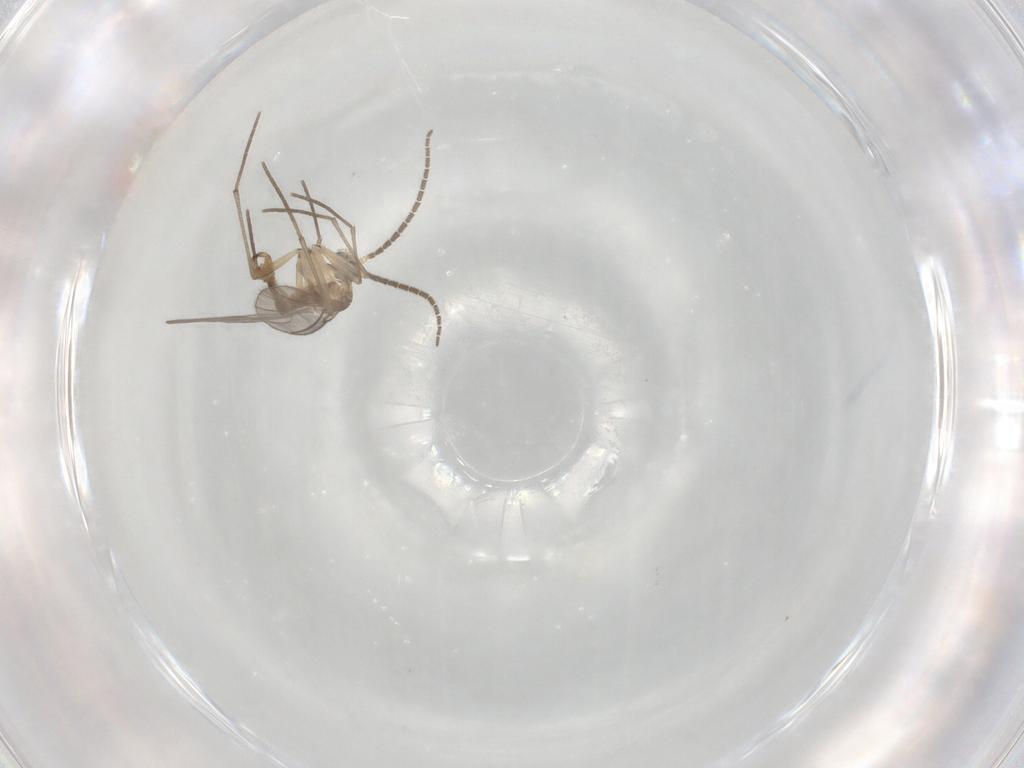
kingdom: Animalia
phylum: Arthropoda
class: Insecta
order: Diptera
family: Sciaridae
